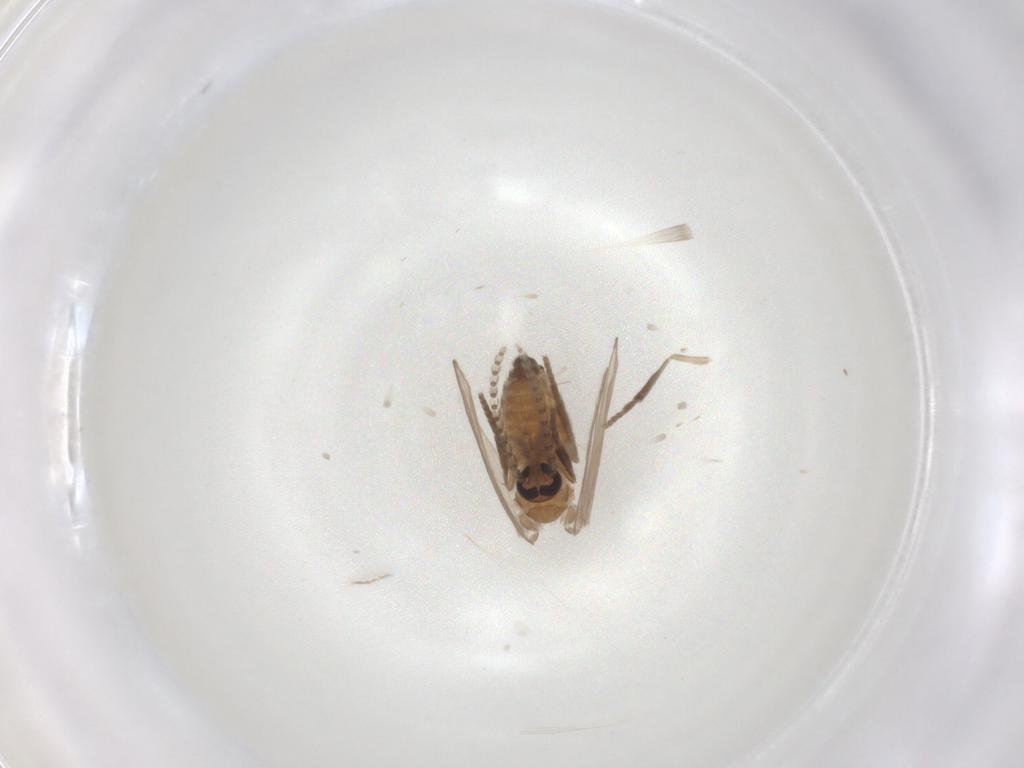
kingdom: Animalia
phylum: Arthropoda
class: Insecta
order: Diptera
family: Psychodidae
